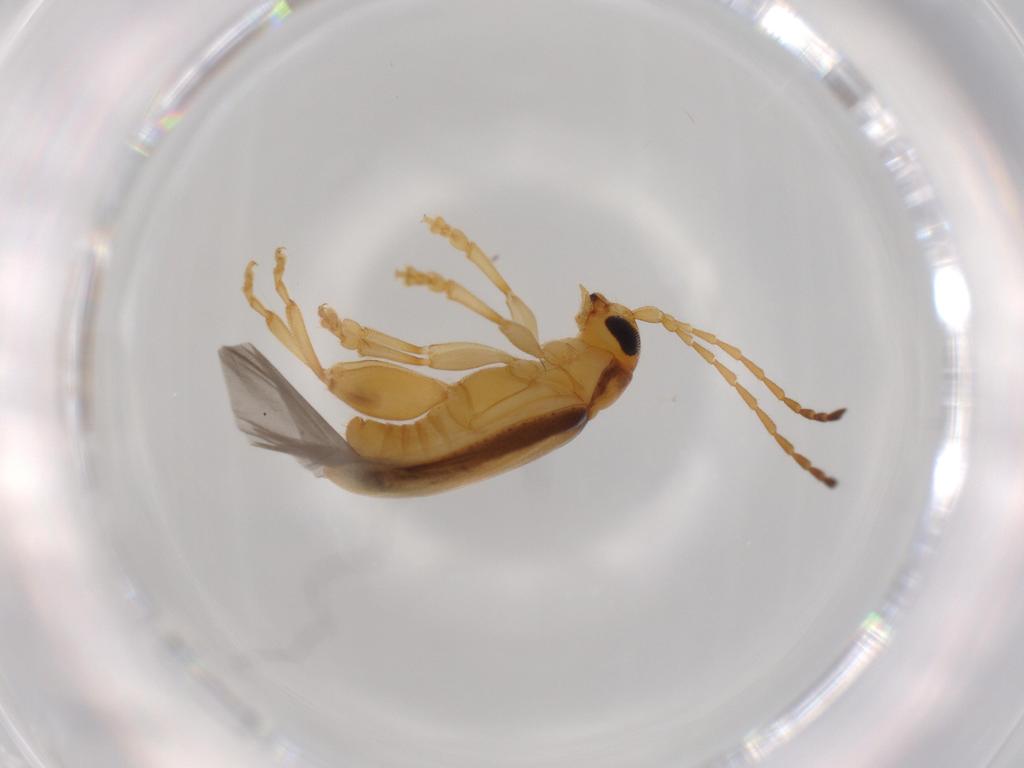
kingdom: Animalia
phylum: Arthropoda
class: Insecta
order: Coleoptera
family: Chrysomelidae
